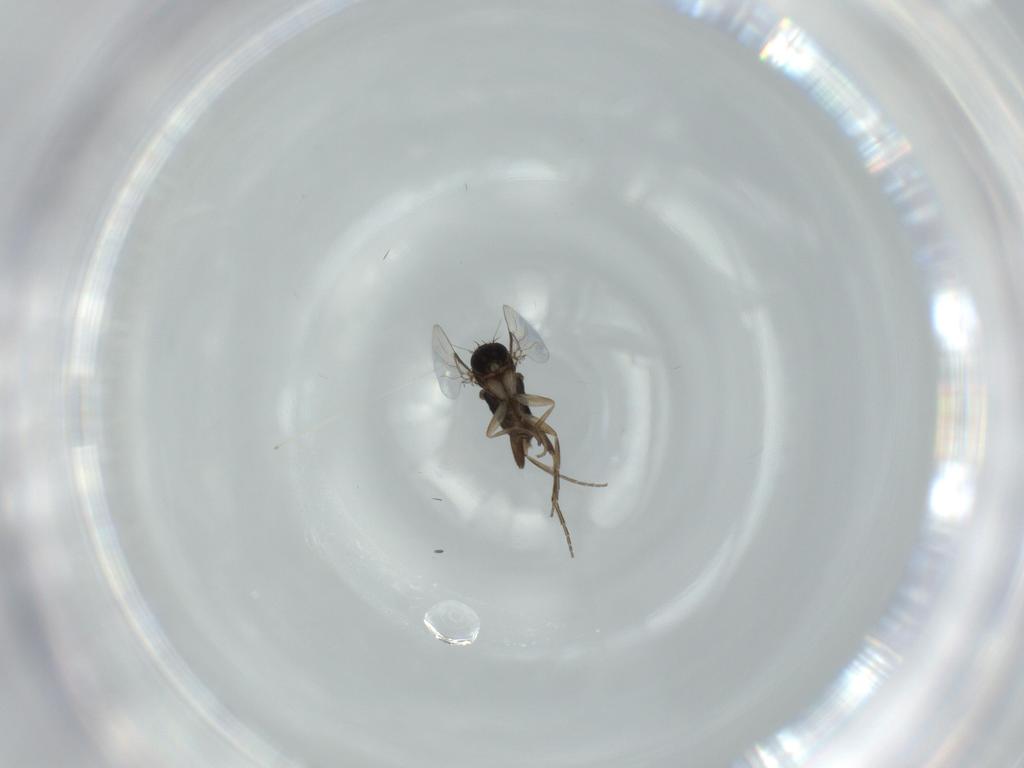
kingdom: Animalia
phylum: Arthropoda
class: Insecta
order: Diptera
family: Phoridae
